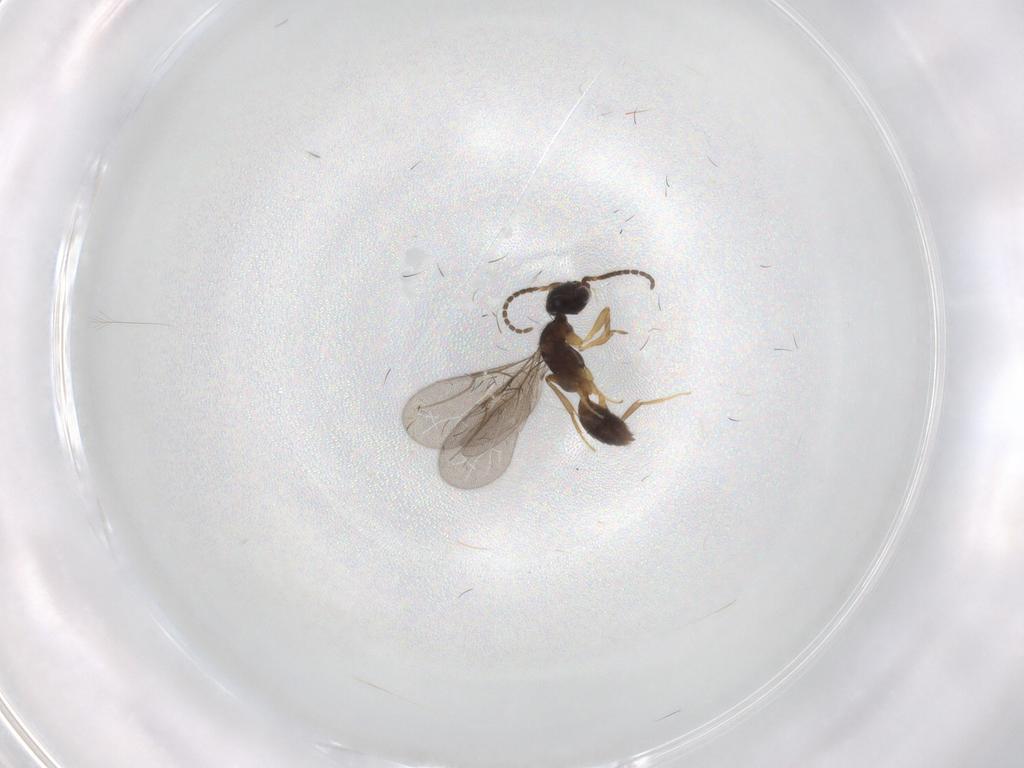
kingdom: Animalia
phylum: Arthropoda
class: Insecta
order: Hymenoptera
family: Bethylidae
